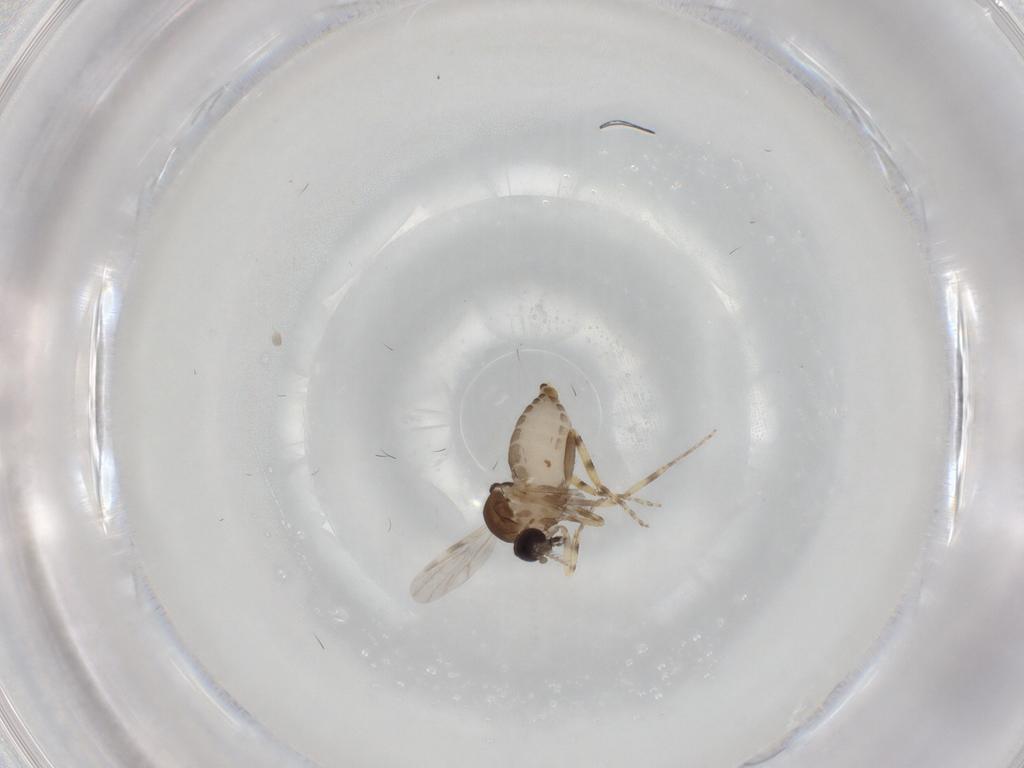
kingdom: Animalia
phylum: Arthropoda
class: Insecta
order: Diptera
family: Ceratopogonidae
